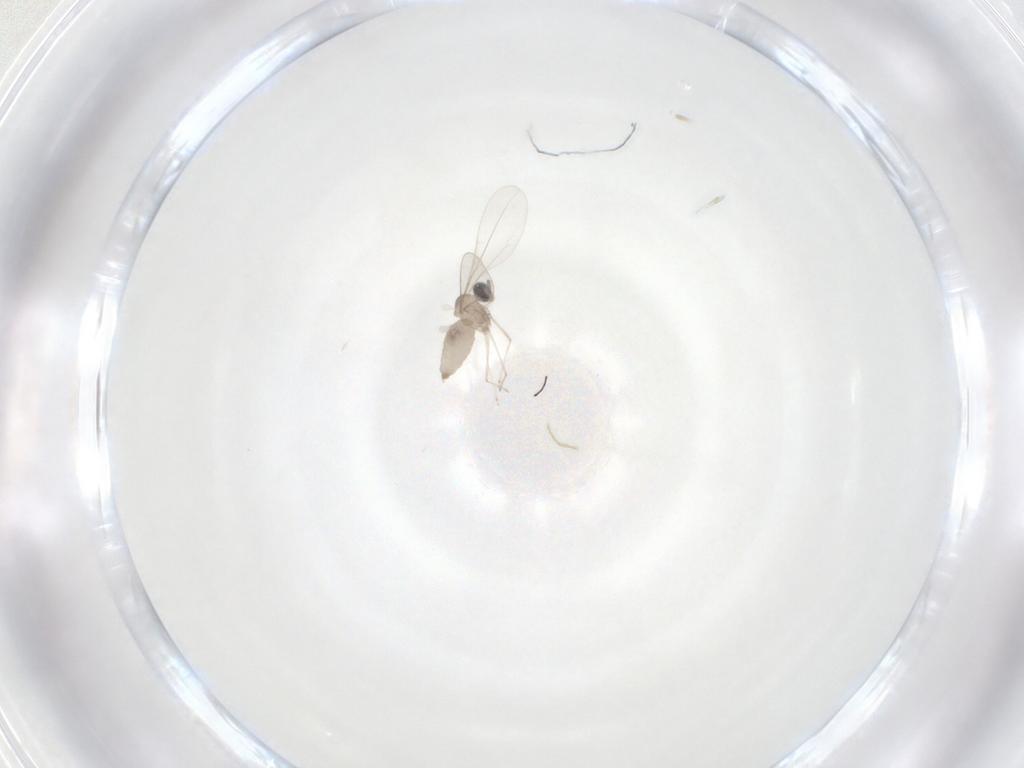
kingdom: Animalia
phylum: Arthropoda
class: Insecta
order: Diptera
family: Cecidomyiidae
